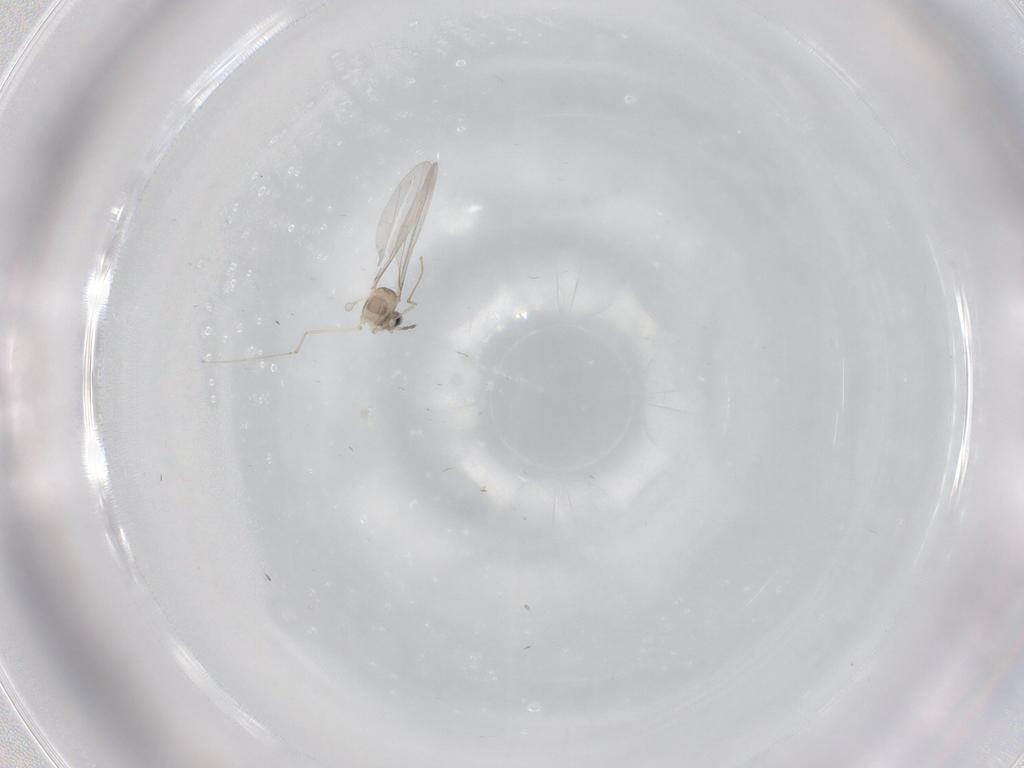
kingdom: Animalia
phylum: Arthropoda
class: Insecta
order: Diptera
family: Cecidomyiidae
